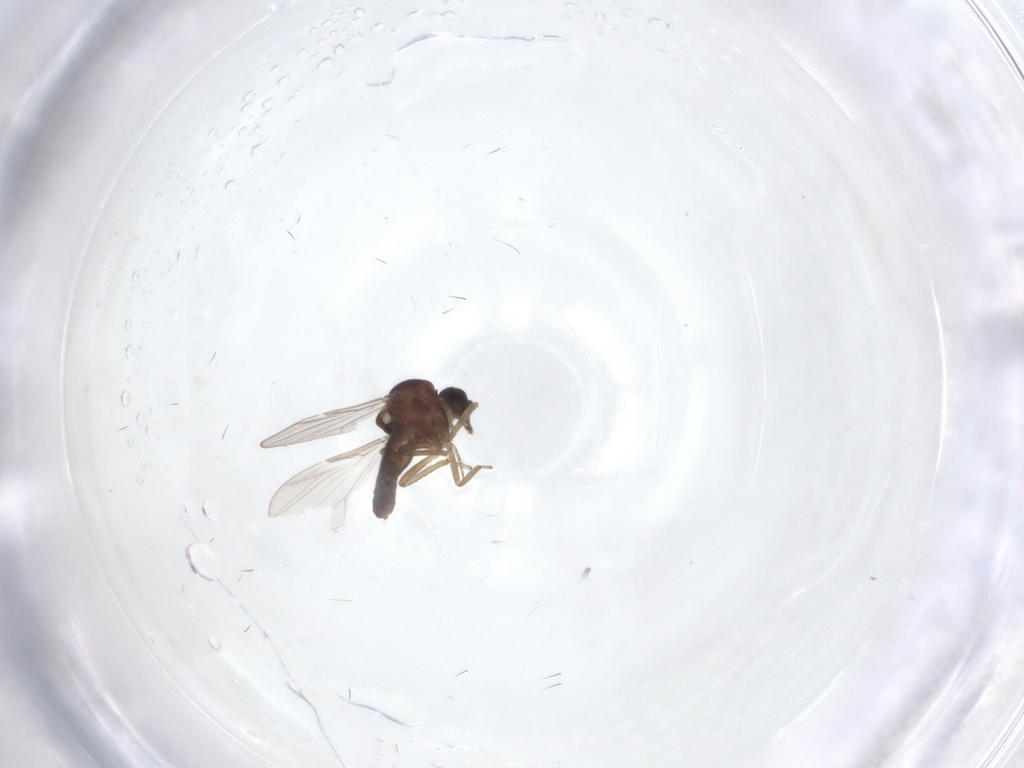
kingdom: Animalia
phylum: Arthropoda
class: Insecta
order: Diptera
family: Ceratopogonidae
